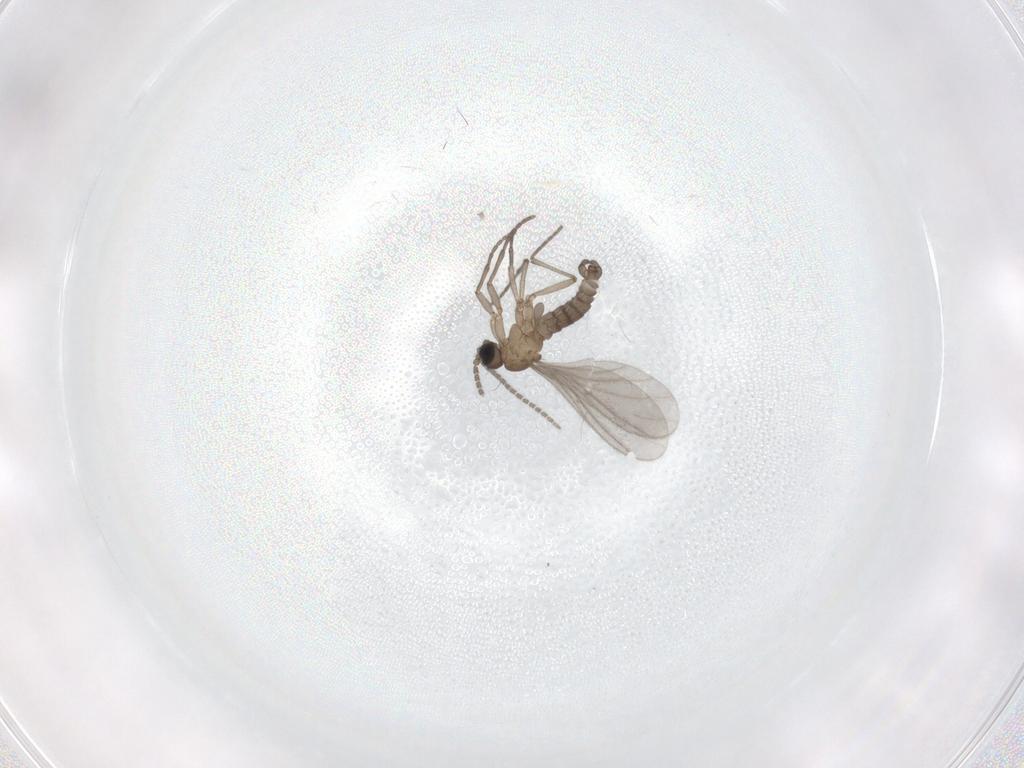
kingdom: Animalia
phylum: Arthropoda
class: Insecta
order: Diptera
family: Sciaridae
